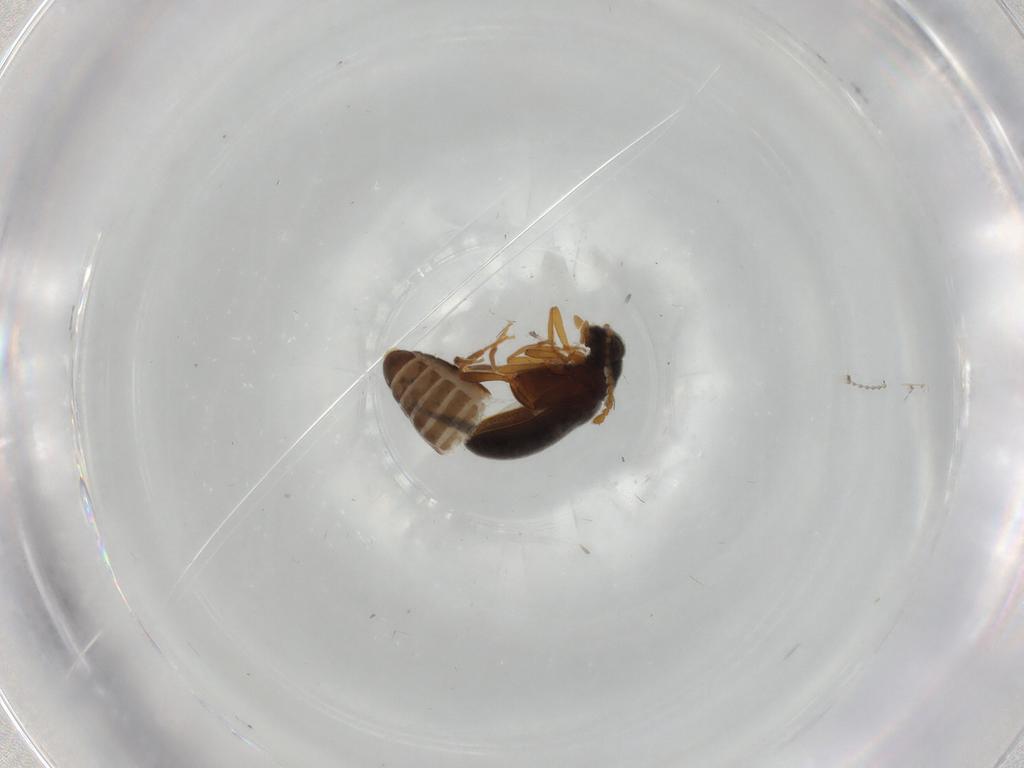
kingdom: Animalia
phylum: Arthropoda
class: Insecta
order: Coleoptera
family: Aderidae
